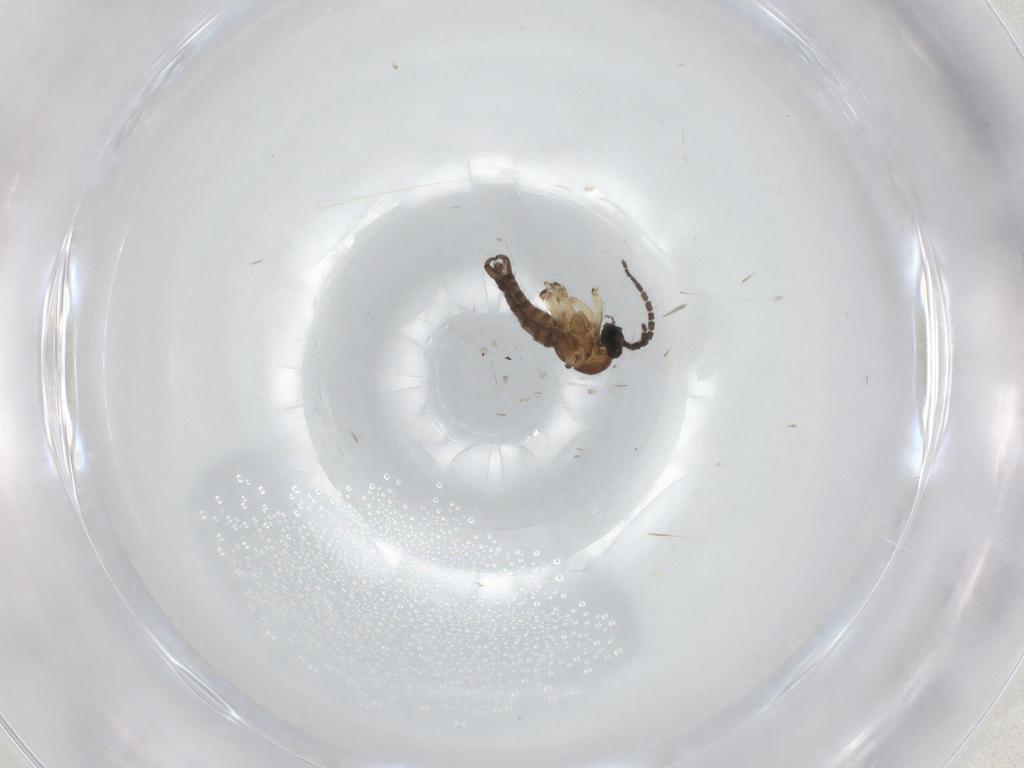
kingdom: Animalia
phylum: Arthropoda
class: Insecta
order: Diptera
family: Sciaridae
